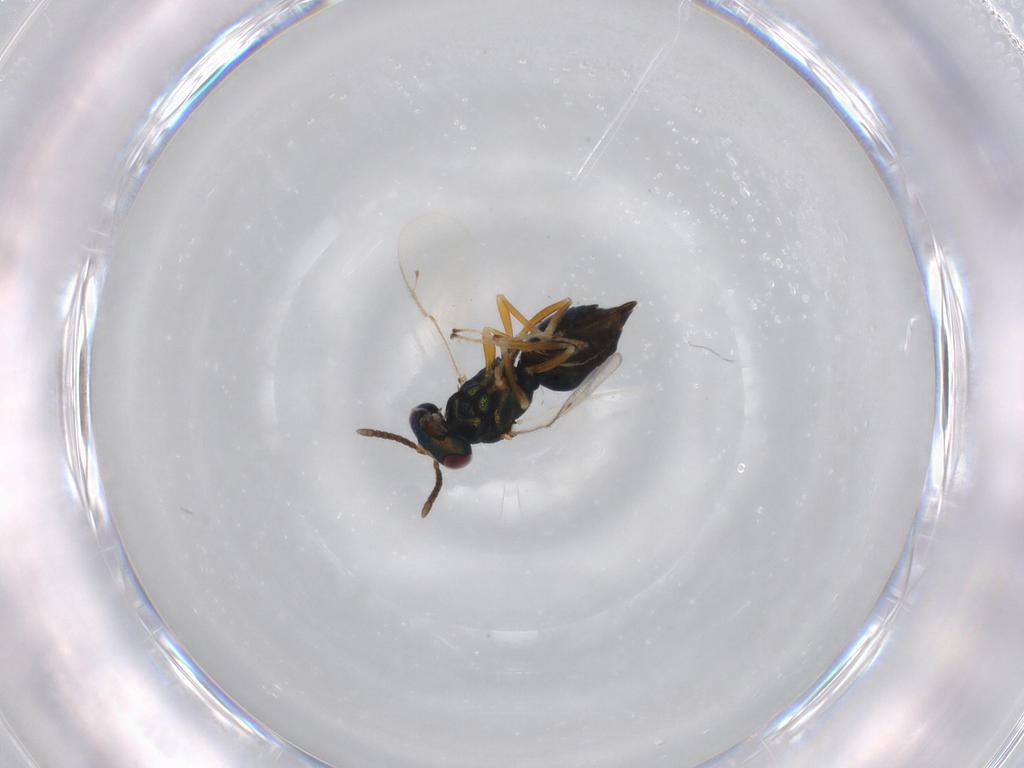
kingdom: Animalia
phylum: Arthropoda
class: Insecta
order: Hymenoptera
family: Pteromalidae
